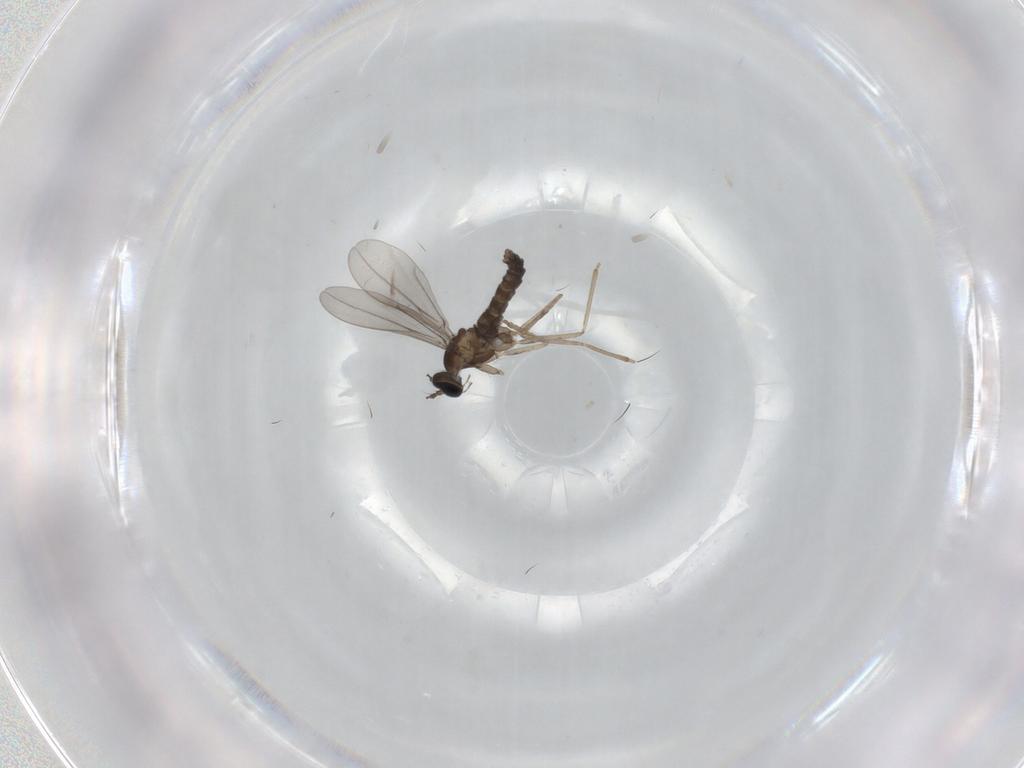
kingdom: Animalia
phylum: Arthropoda
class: Insecta
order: Diptera
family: Cecidomyiidae
